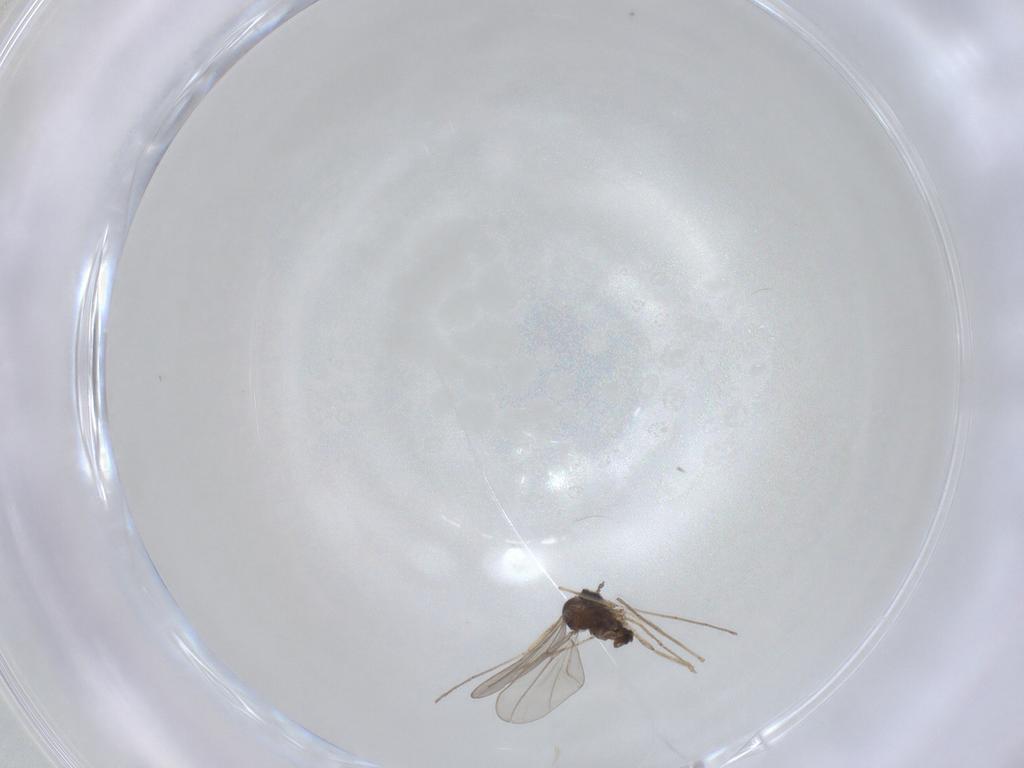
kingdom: Animalia
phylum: Arthropoda
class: Insecta
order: Diptera
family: Cecidomyiidae
